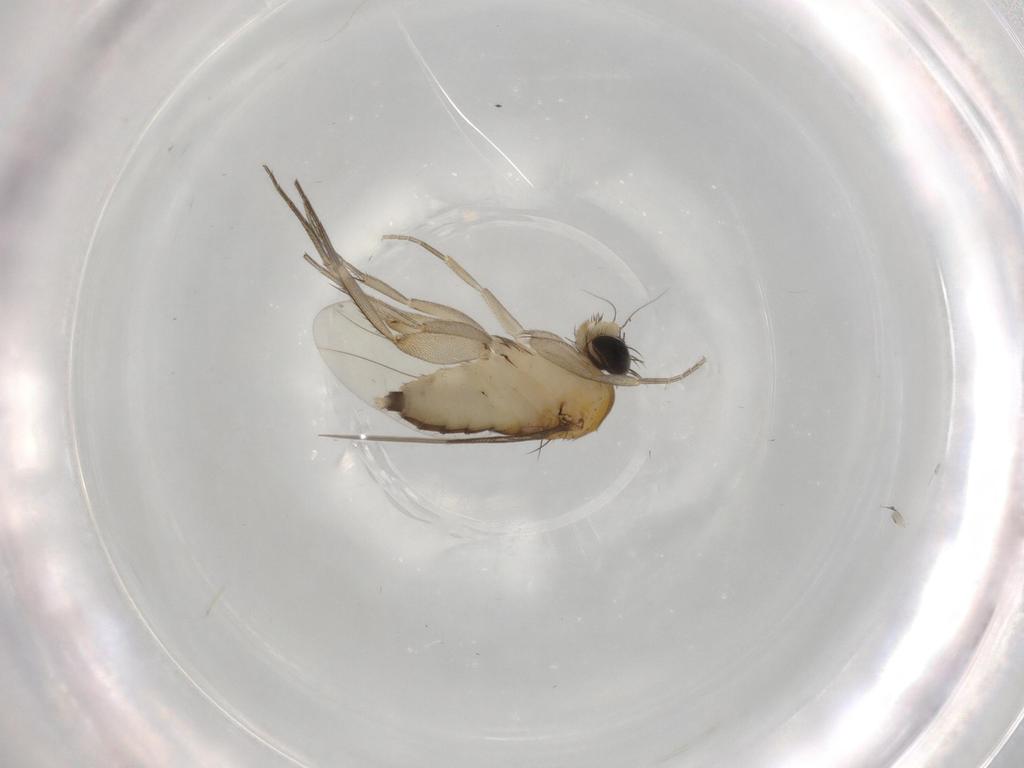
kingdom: Animalia
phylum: Arthropoda
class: Insecta
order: Diptera
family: Phoridae
